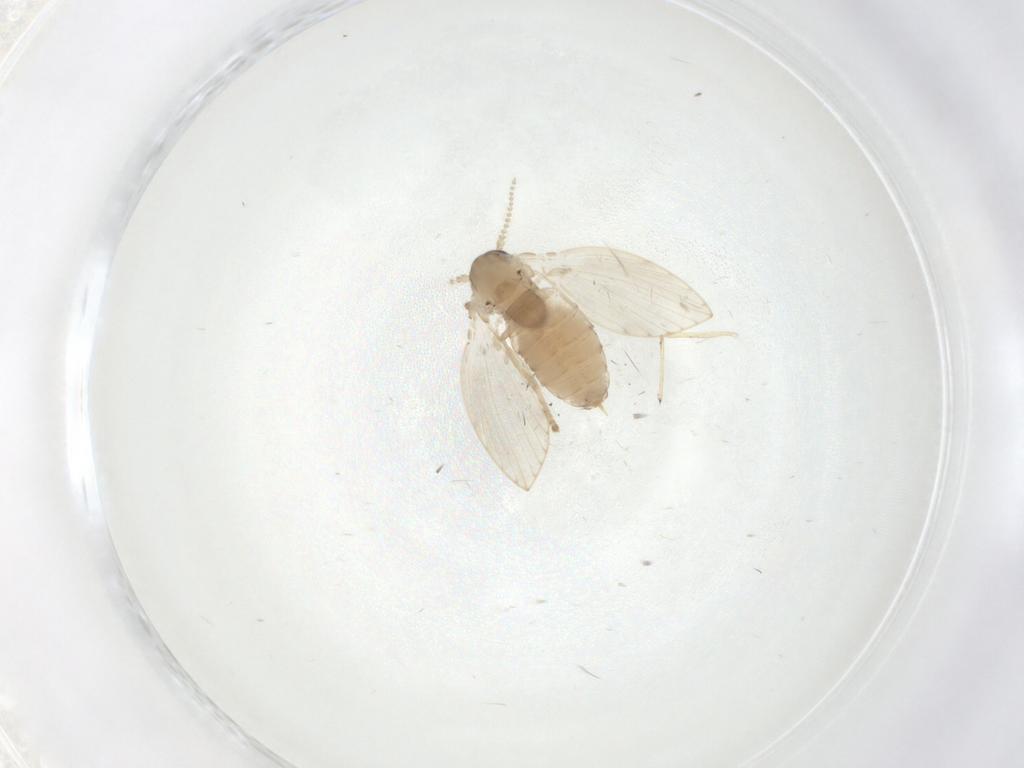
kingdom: Animalia
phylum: Arthropoda
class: Insecta
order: Diptera
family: Psychodidae
